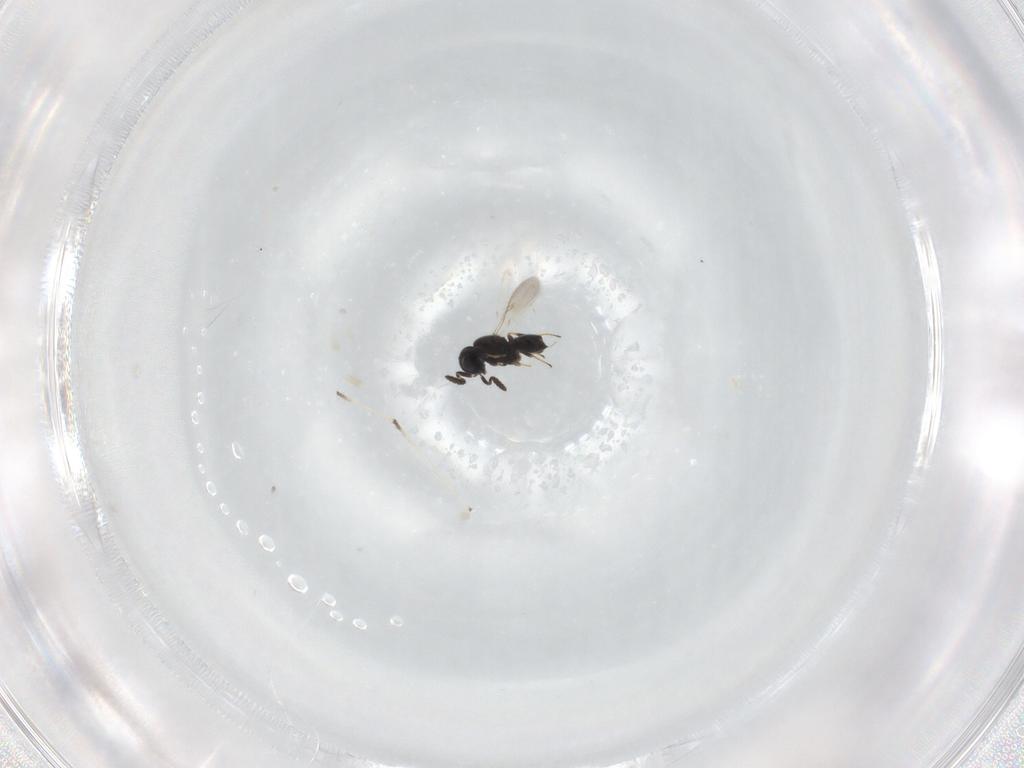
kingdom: Animalia
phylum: Arthropoda
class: Insecta
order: Hymenoptera
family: Scelionidae
